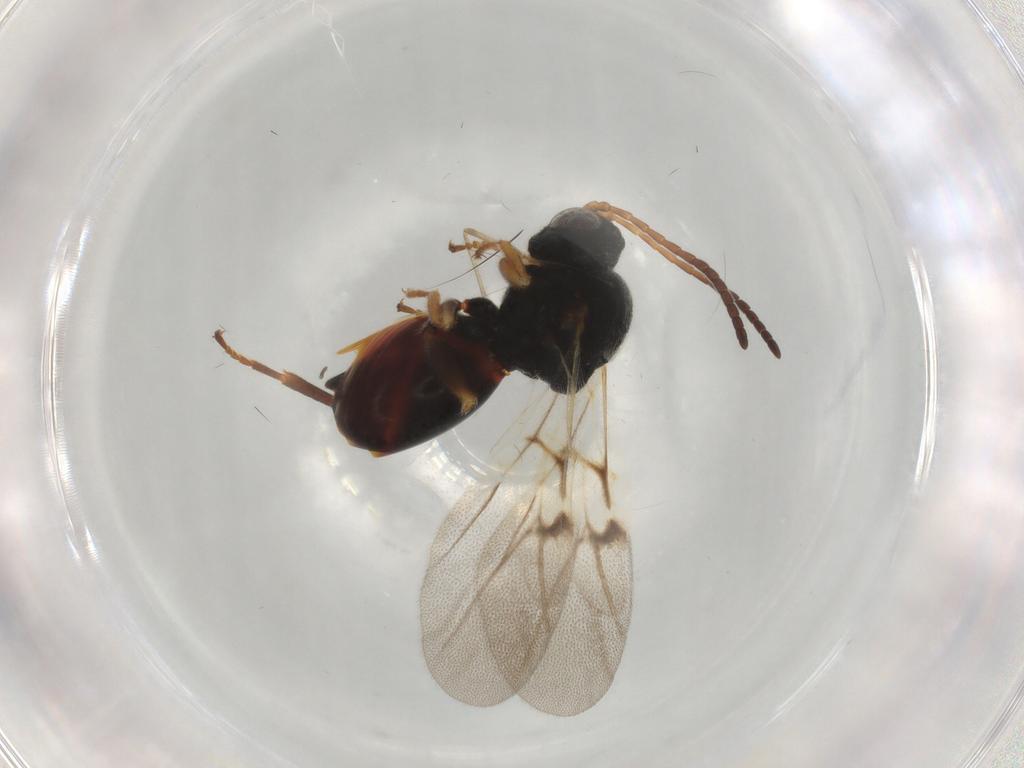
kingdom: Animalia
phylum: Arthropoda
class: Insecta
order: Hymenoptera
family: Cynipidae
